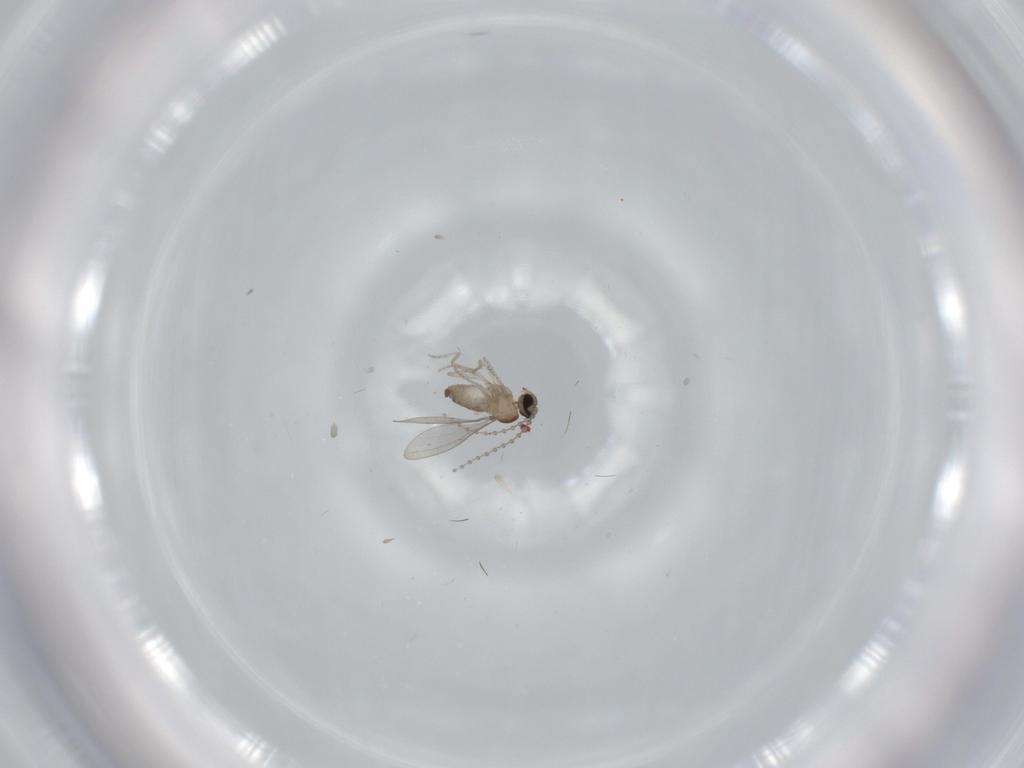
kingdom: Animalia
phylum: Arthropoda
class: Insecta
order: Diptera
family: Cecidomyiidae
